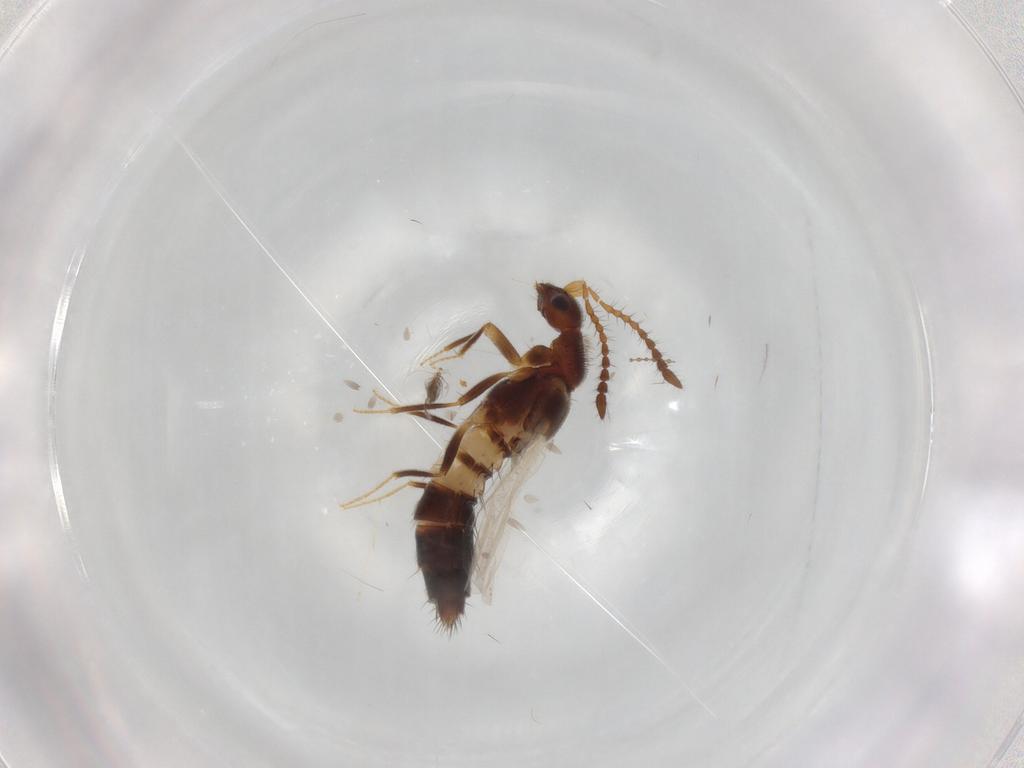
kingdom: Animalia
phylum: Arthropoda
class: Insecta
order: Coleoptera
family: Staphylinidae
